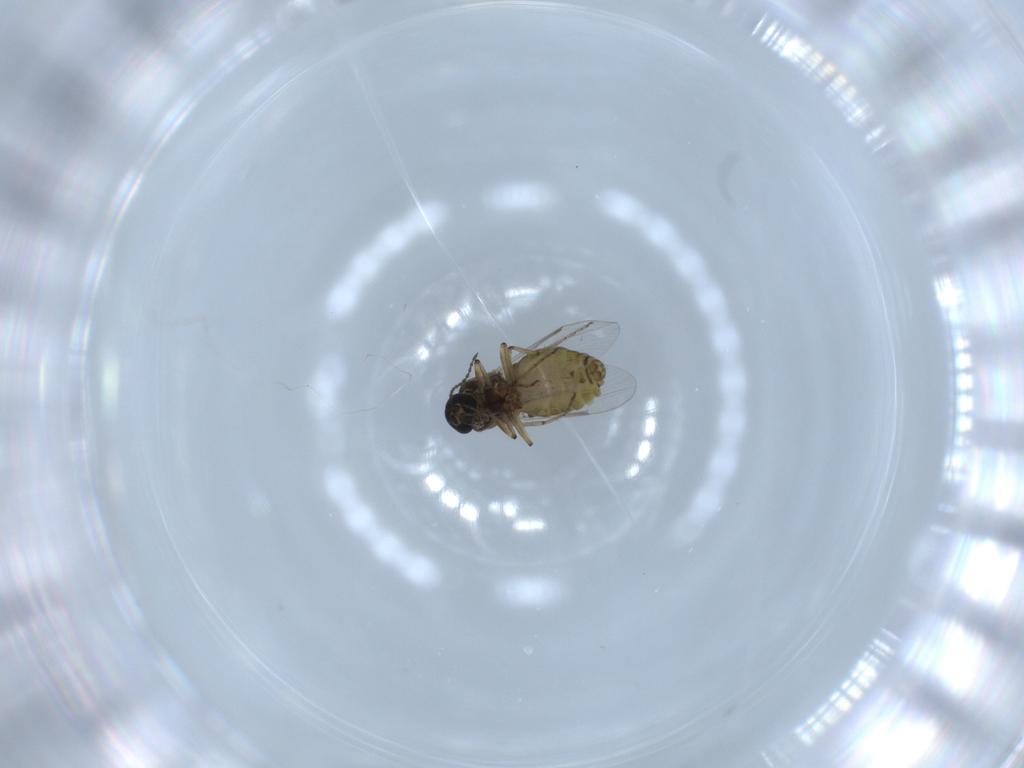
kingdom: Animalia
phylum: Arthropoda
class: Insecta
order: Diptera
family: Ceratopogonidae
